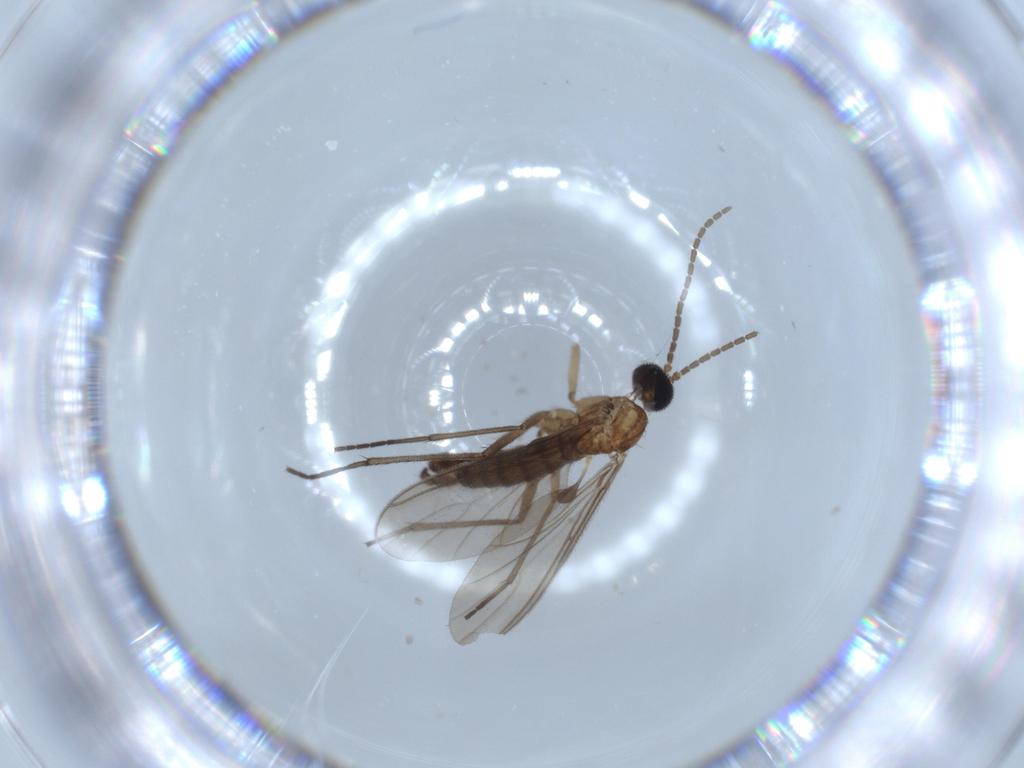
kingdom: Animalia
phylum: Arthropoda
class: Insecta
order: Diptera
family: Sciaridae
